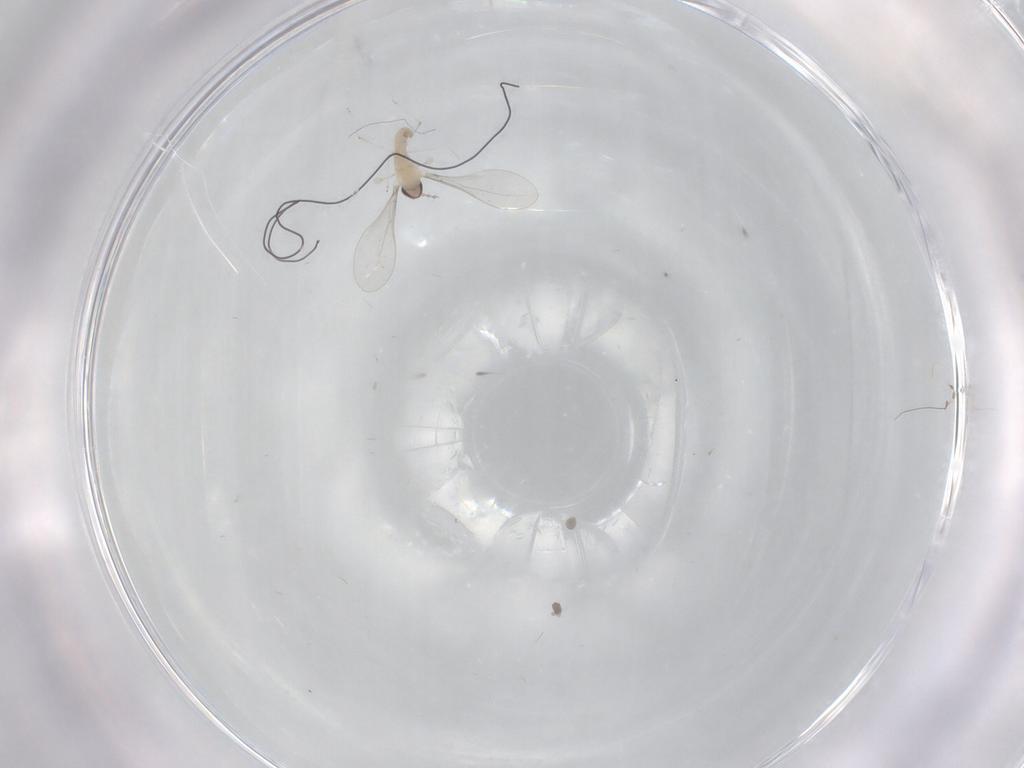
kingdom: Animalia
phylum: Arthropoda
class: Insecta
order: Diptera
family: Cecidomyiidae
